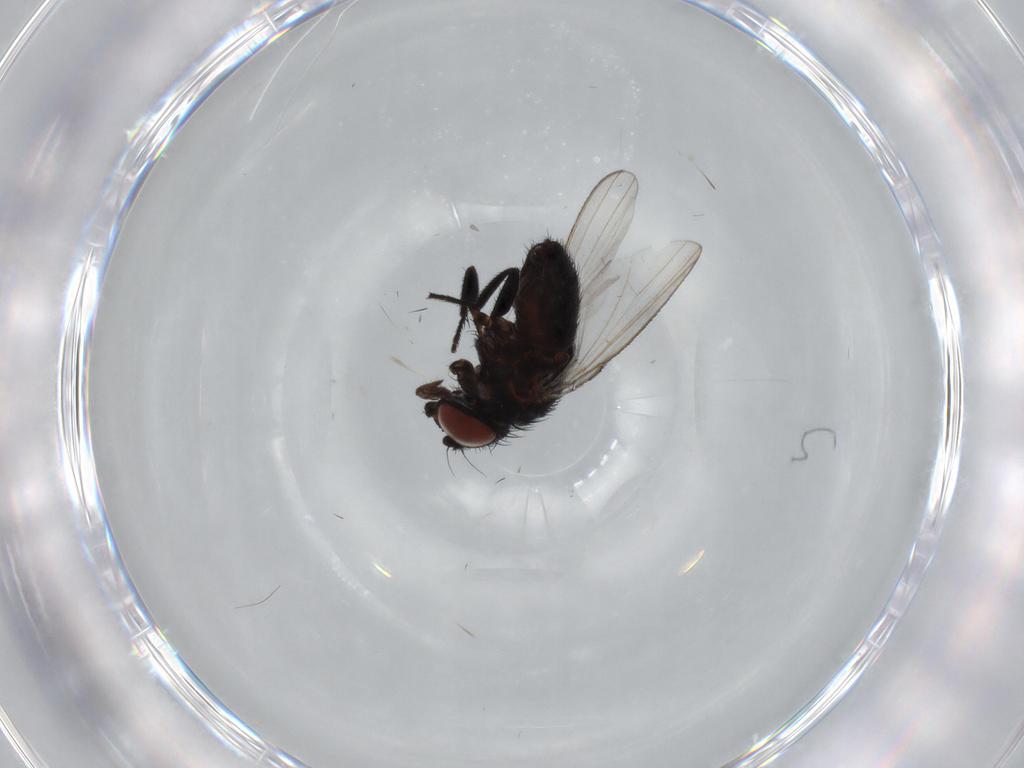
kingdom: Animalia
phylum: Arthropoda
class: Insecta
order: Diptera
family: Milichiidae
